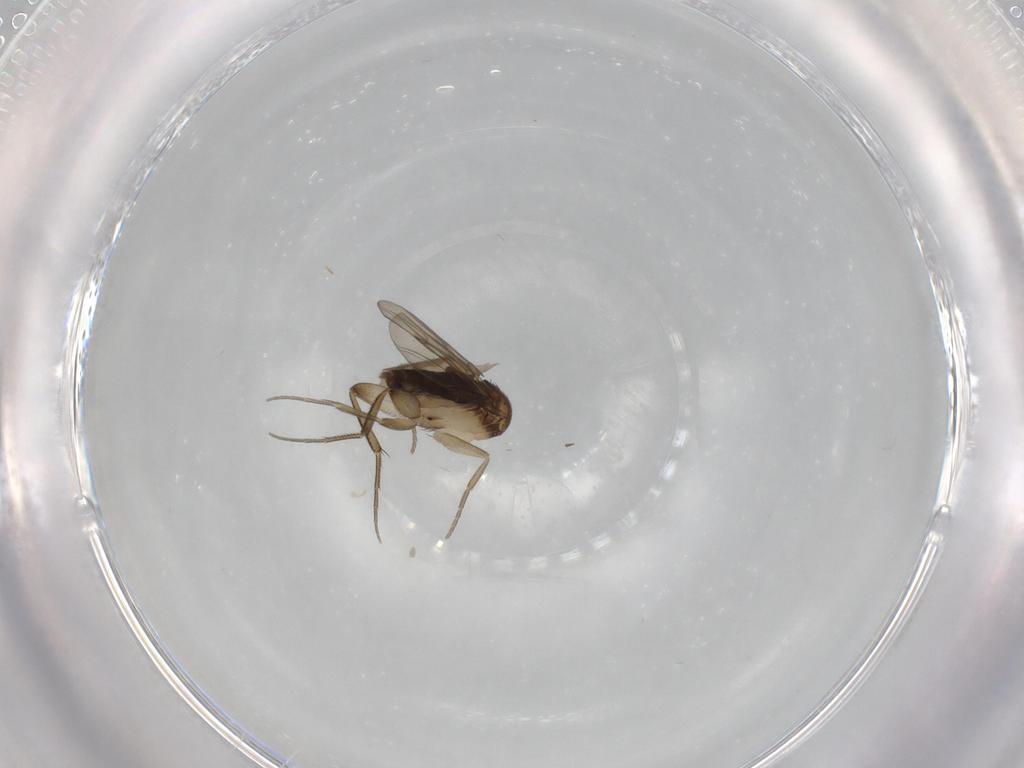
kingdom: Animalia
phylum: Arthropoda
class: Insecta
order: Diptera
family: Phoridae
